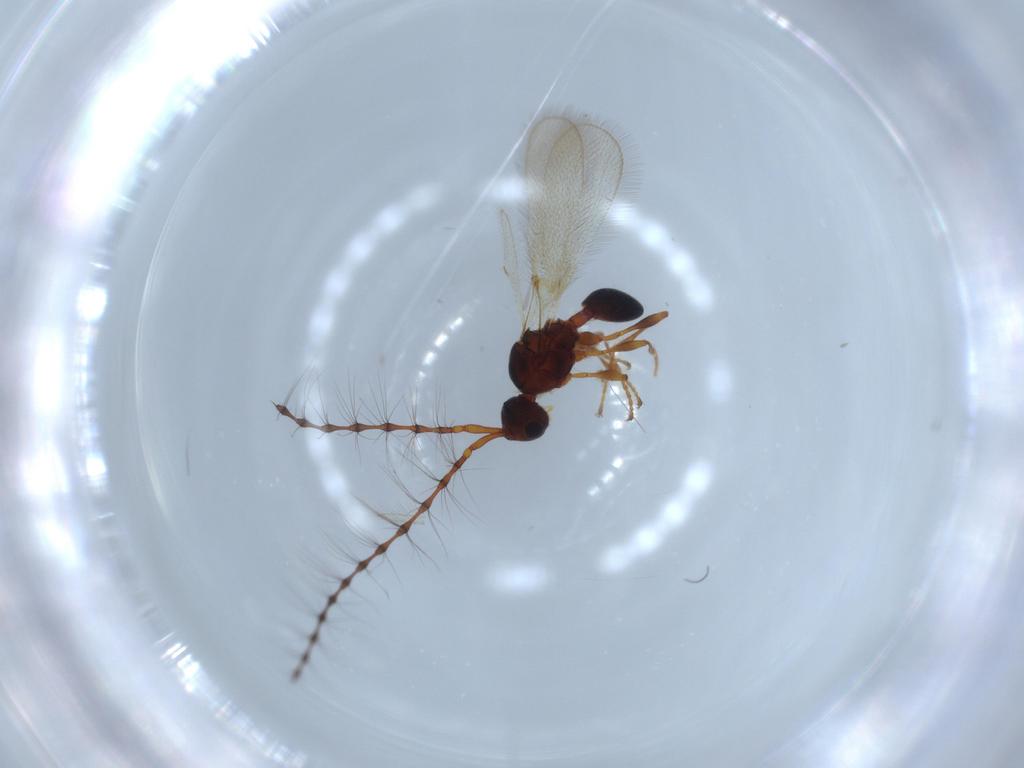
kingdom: Animalia
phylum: Arthropoda
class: Insecta
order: Hymenoptera
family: Diapriidae
